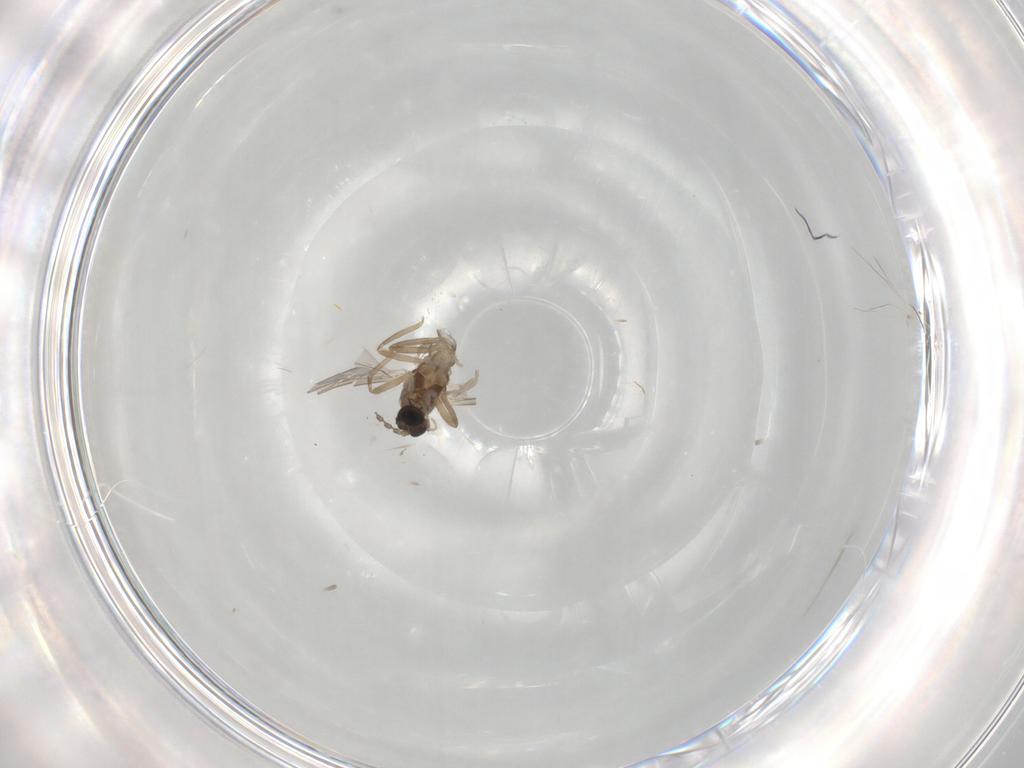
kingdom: Animalia
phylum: Arthropoda
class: Insecta
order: Diptera
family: Cecidomyiidae
